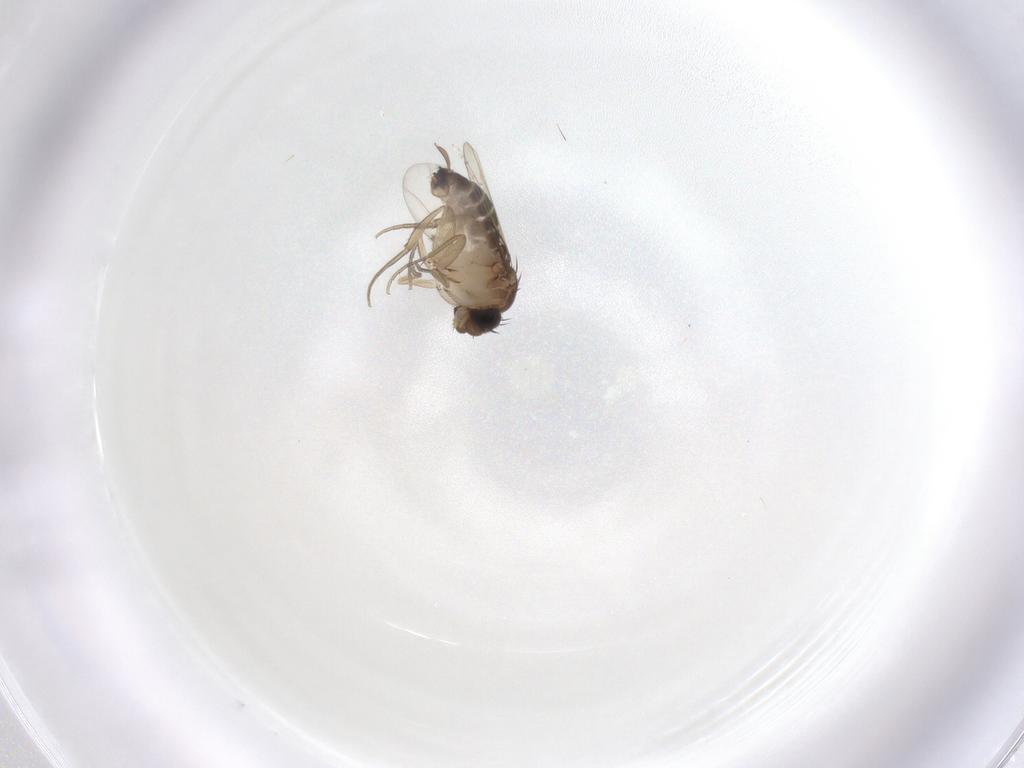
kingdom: Animalia
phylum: Arthropoda
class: Insecta
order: Diptera
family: Phoridae
